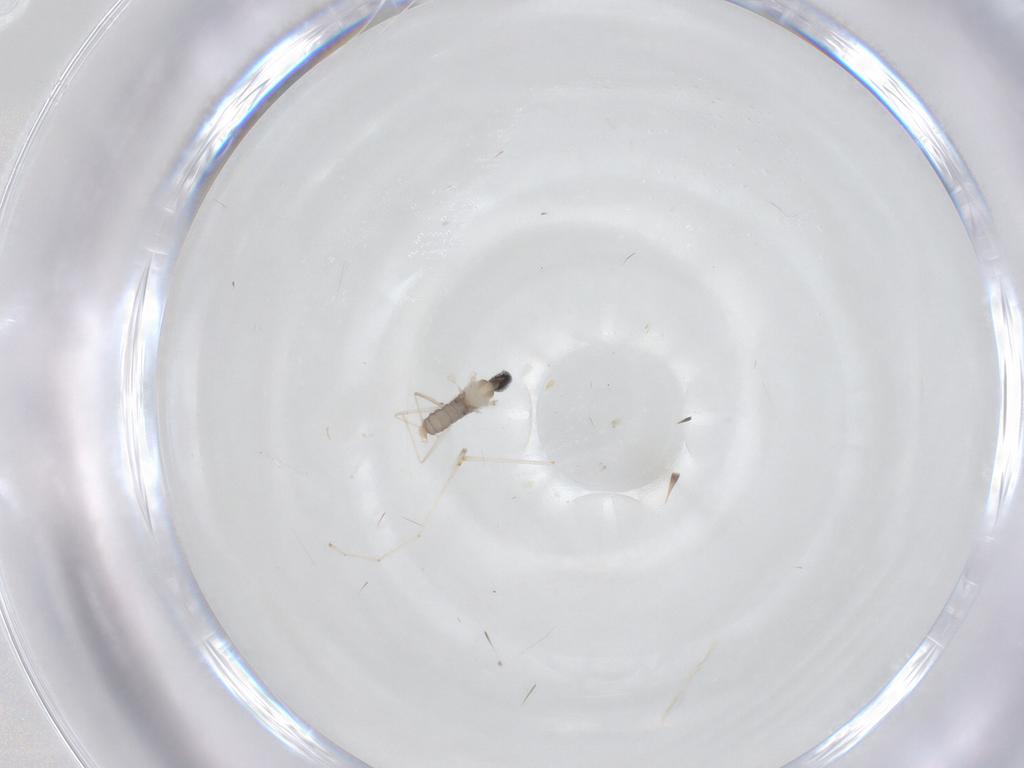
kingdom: Animalia
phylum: Arthropoda
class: Insecta
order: Diptera
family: Cecidomyiidae
